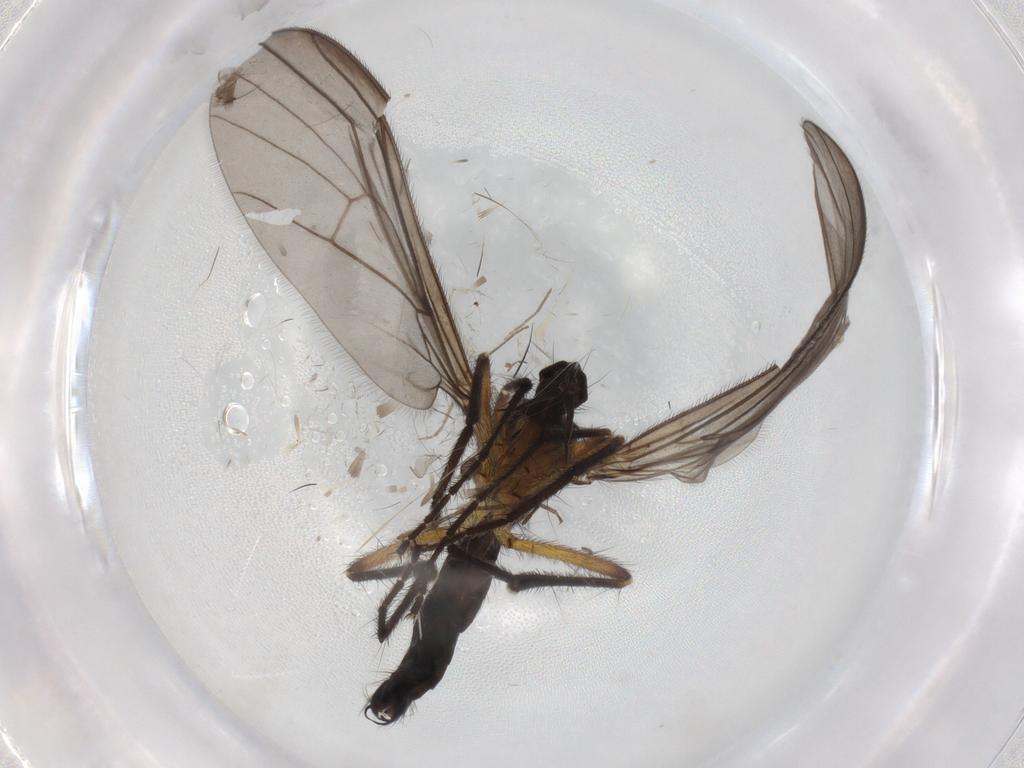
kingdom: Animalia
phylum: Arthropoda
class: Insecta
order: Diptera
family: Empididae
